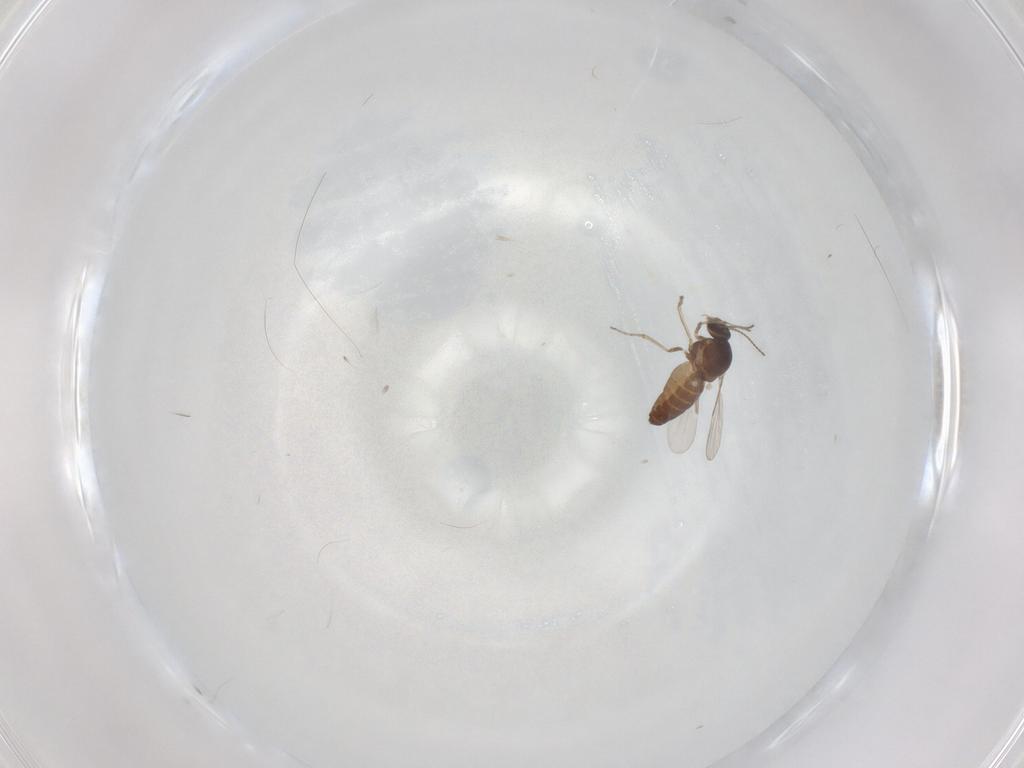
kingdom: Animalia
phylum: Arthropoda
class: Insecta
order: Diptera
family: Ceratopogonidae
